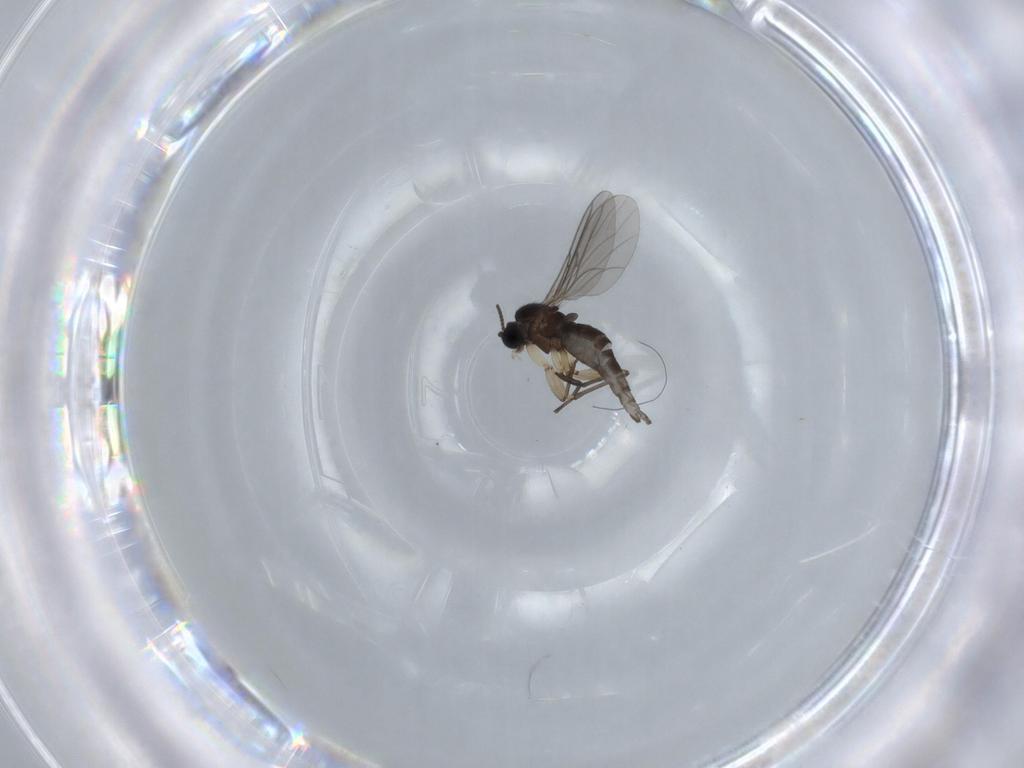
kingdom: Animalia
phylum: Arthropoda
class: Insecta
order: Diptera
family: Sciaridae
